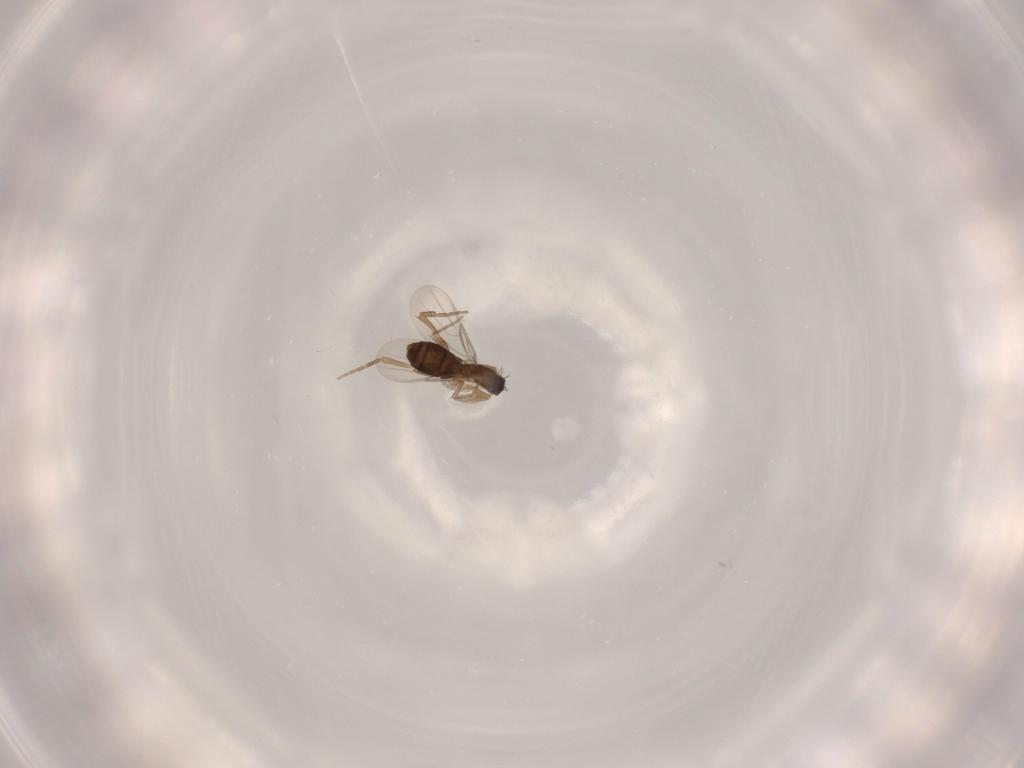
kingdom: Animalia
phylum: Arthropoda
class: Insecta
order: Diptera
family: Phoridae
